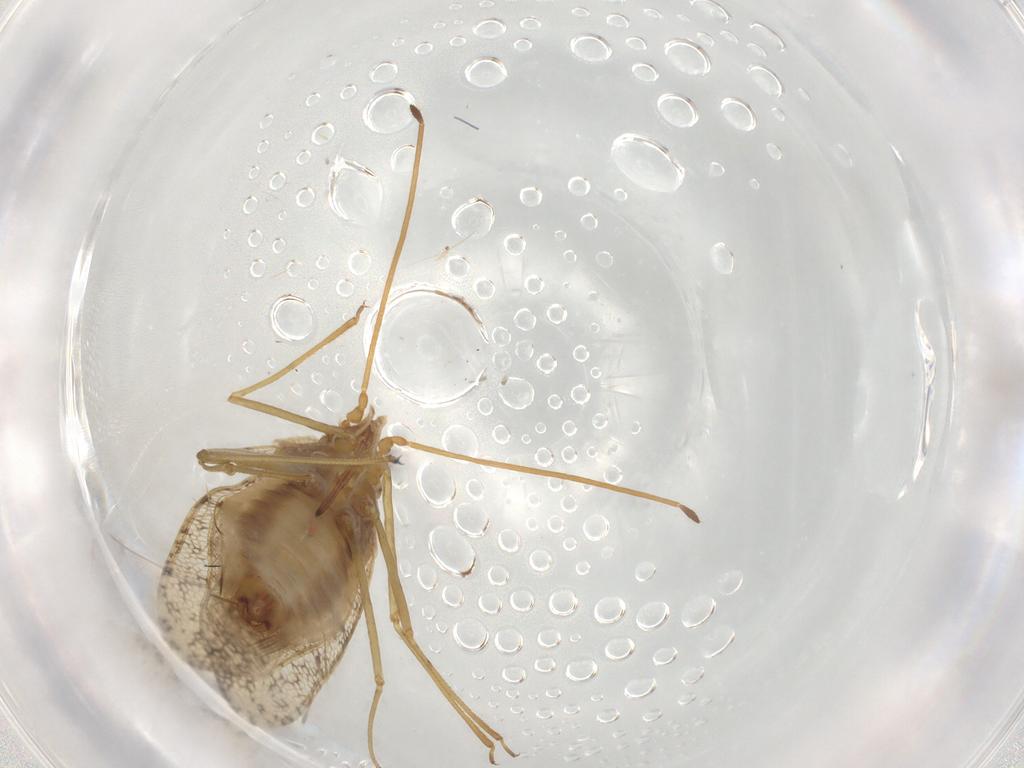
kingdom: Animalia
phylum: Arthropoda
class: Insecta
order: Hemiptera
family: Tingidae
